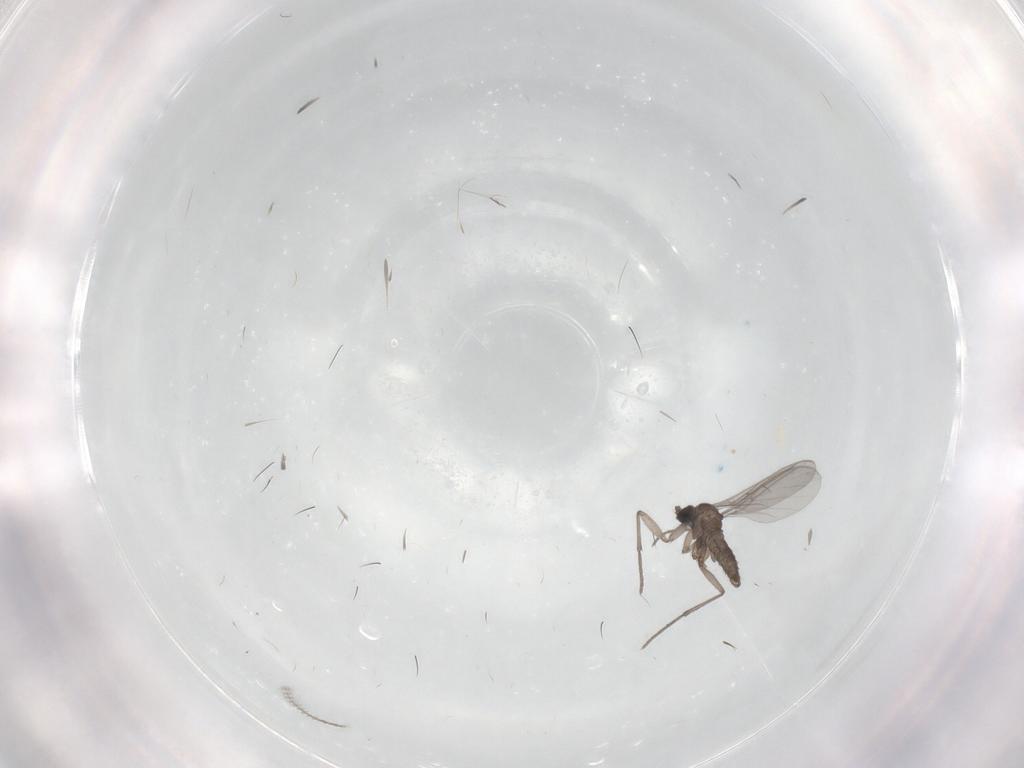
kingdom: Animalia
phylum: Arthropoda
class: Insecta
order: Diptera
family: Sciaridae
